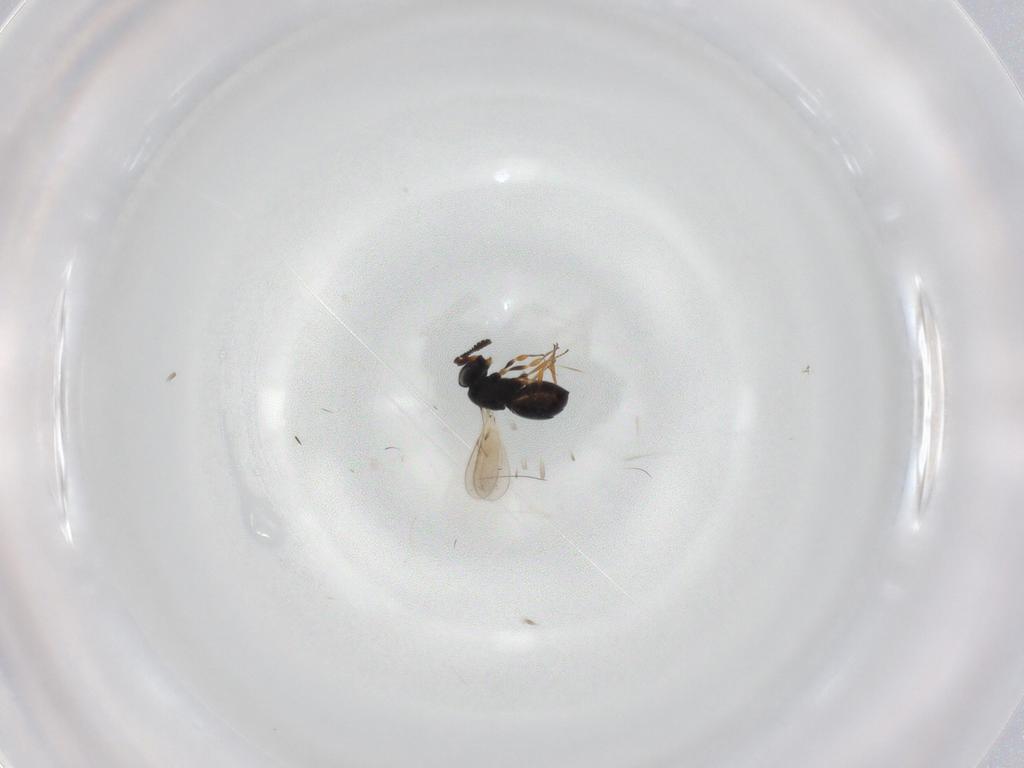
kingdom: Animalia
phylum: Arthropoda
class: Insecta
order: Hymenoptera
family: Scelionidae
